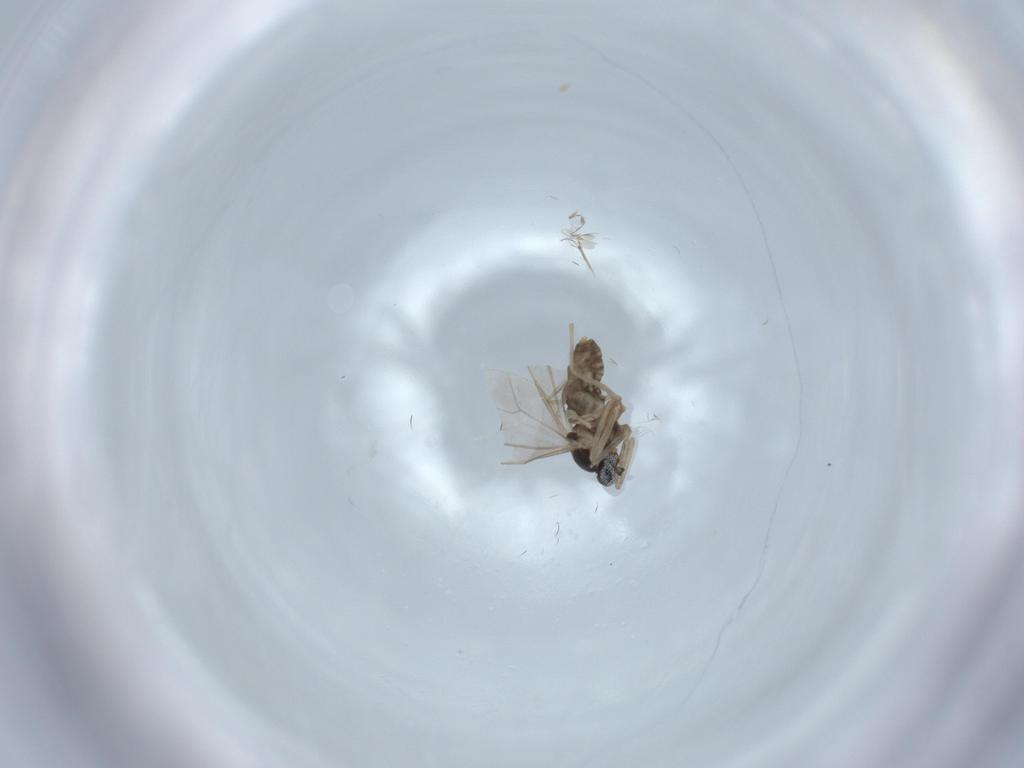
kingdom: Animalia
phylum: Arthropoda
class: Insecta
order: Diptera
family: Cecidomyiidae
